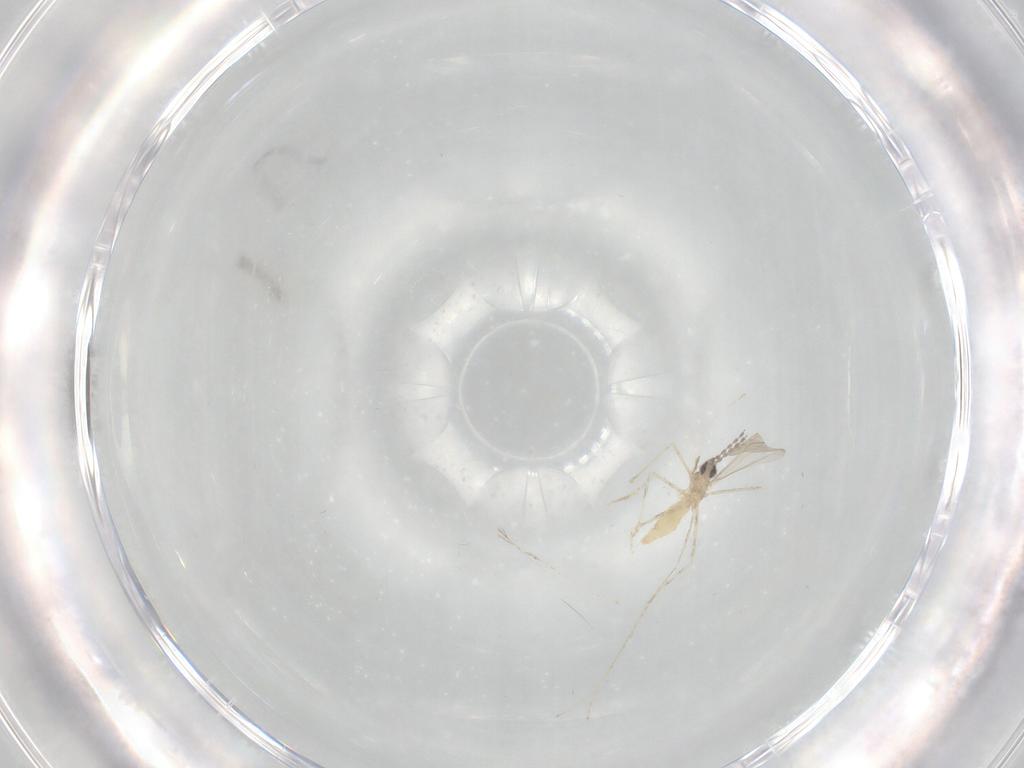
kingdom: Animalia
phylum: Arthropoda
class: Insecta
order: Diptera
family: Cecidomyiidae
